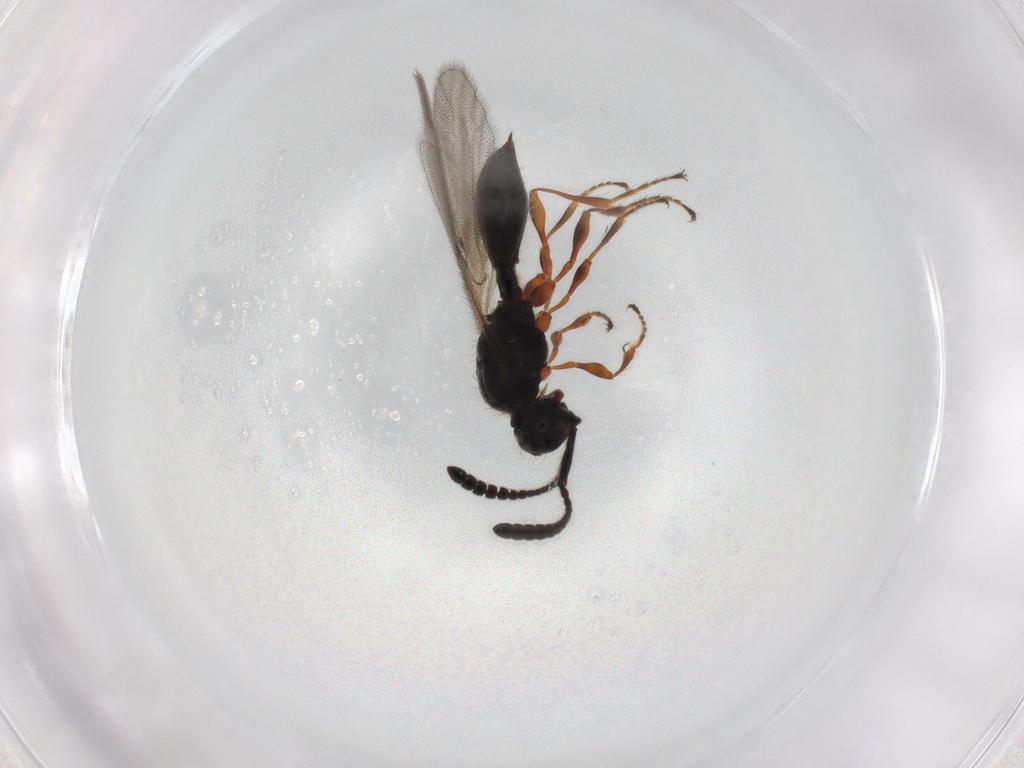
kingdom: Animalia
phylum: Arthropoda
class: Insecta
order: Hymenoptera
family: Diapriidae
